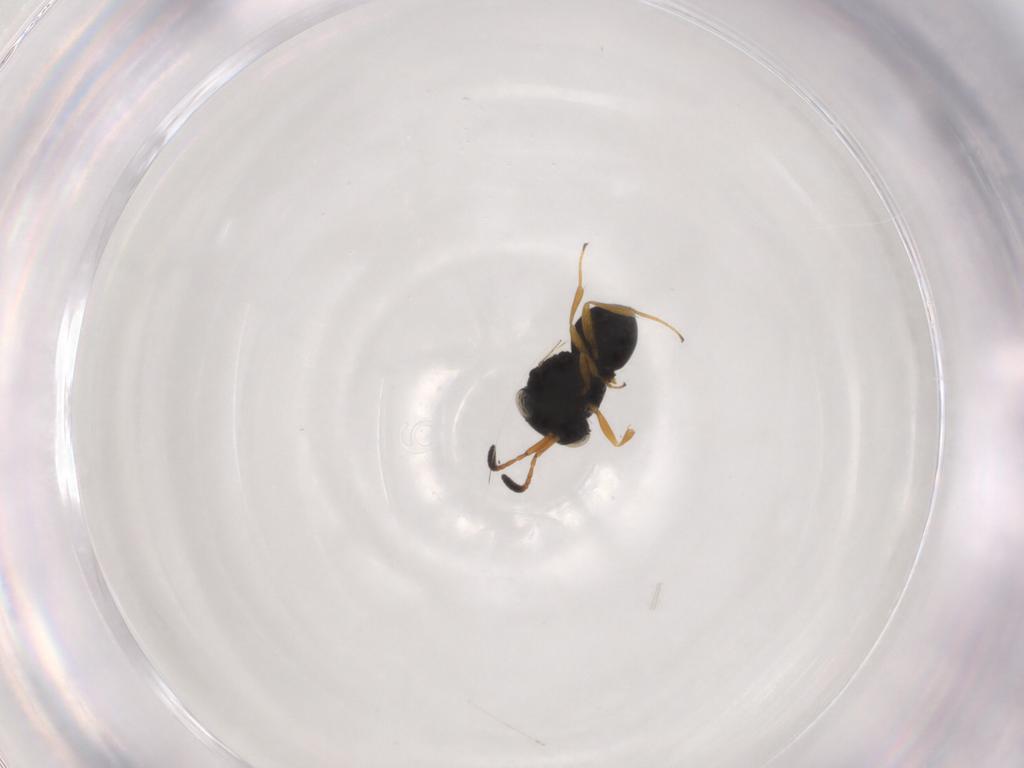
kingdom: Animalia
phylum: Arthropoda
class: Insecta
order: Hymenoptera
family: Scelionidae
